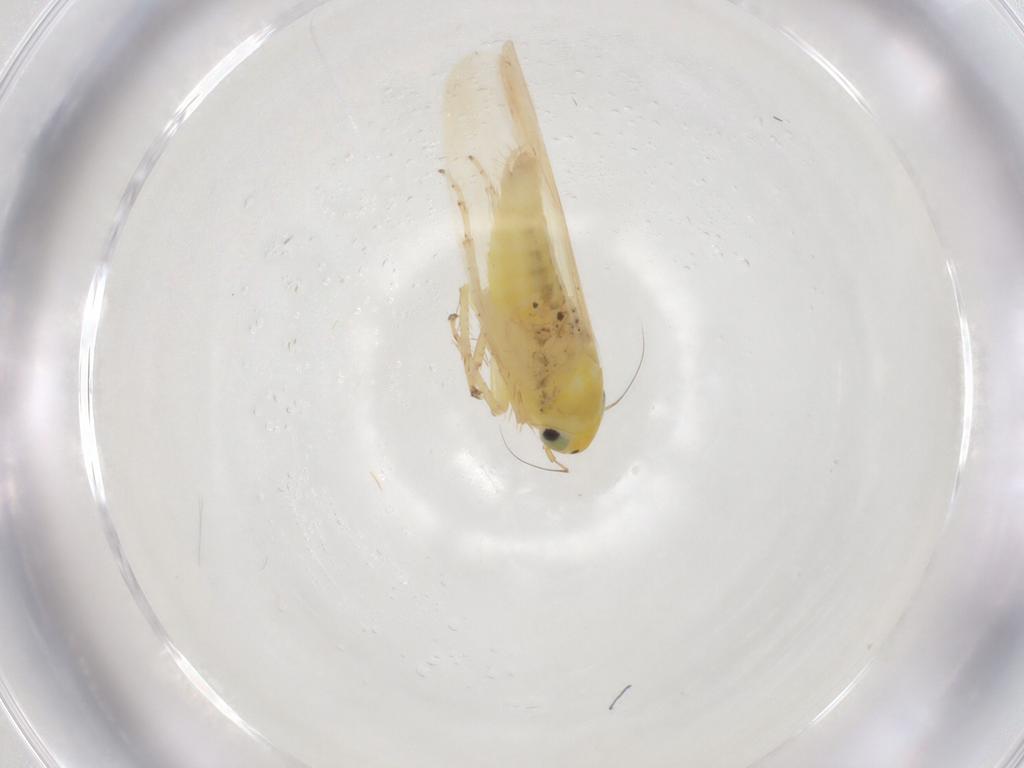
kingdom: Animalia
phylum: Arthropoda
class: Insecta
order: Hemiptera
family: Cicadellidae
